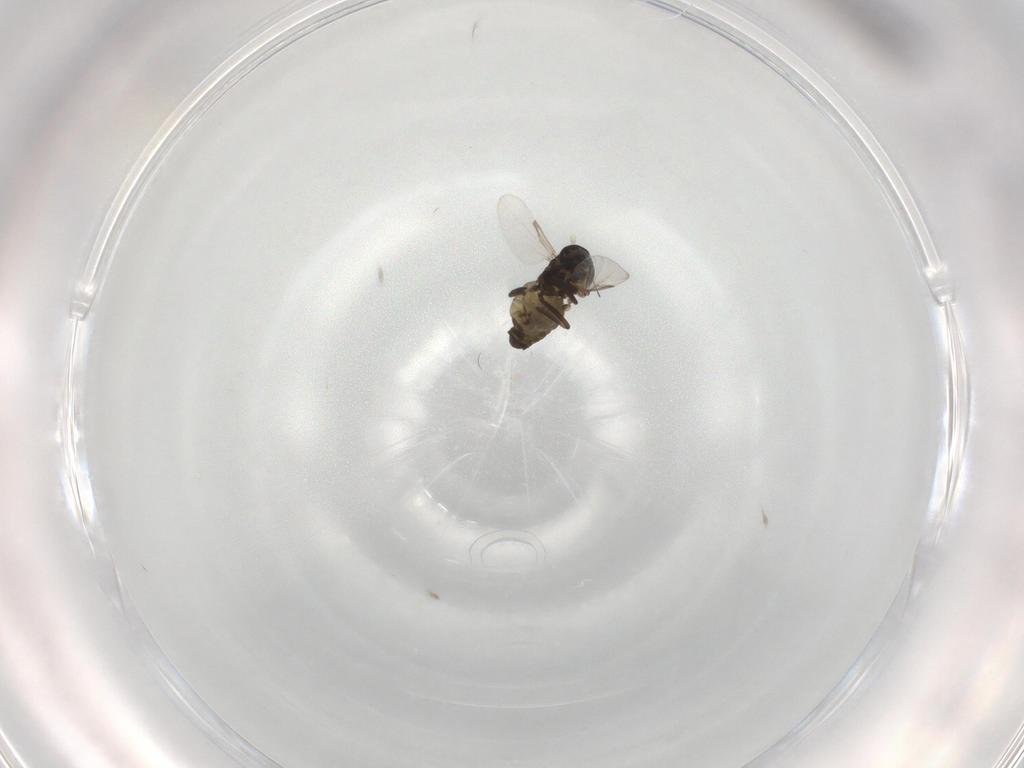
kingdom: Animalia
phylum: Arthropoda
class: Insecta
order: Diptera
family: Ceratopogonidae
